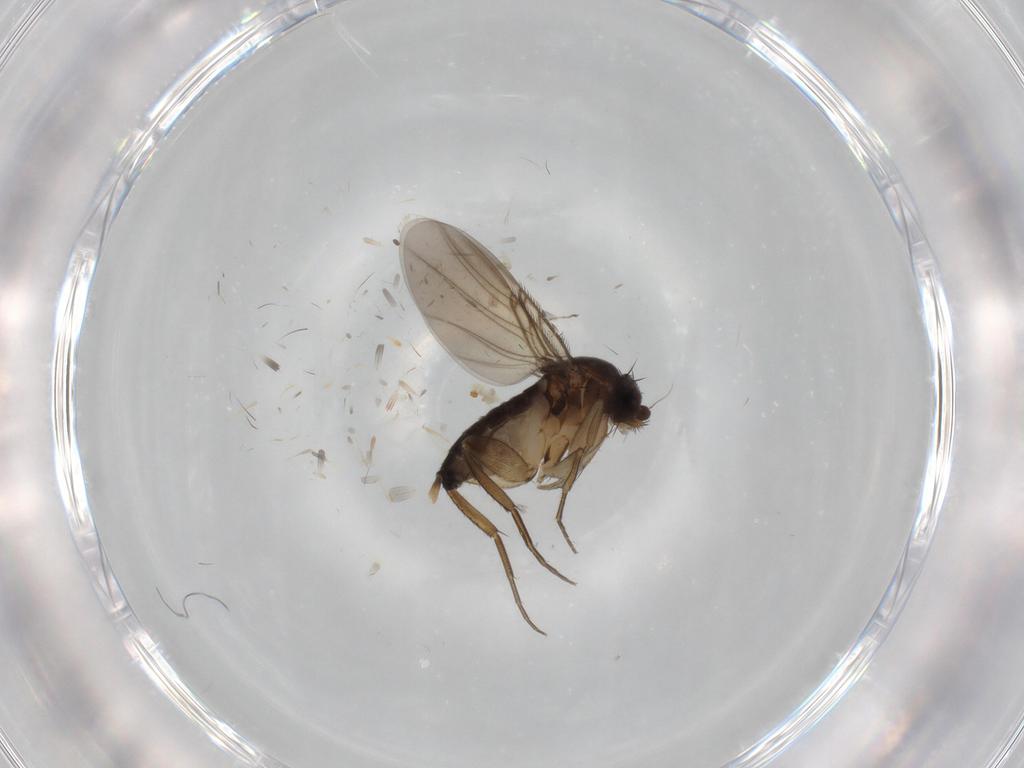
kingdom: Animalia
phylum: Arthropoda
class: Insecta
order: Diptera
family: Phoridae
